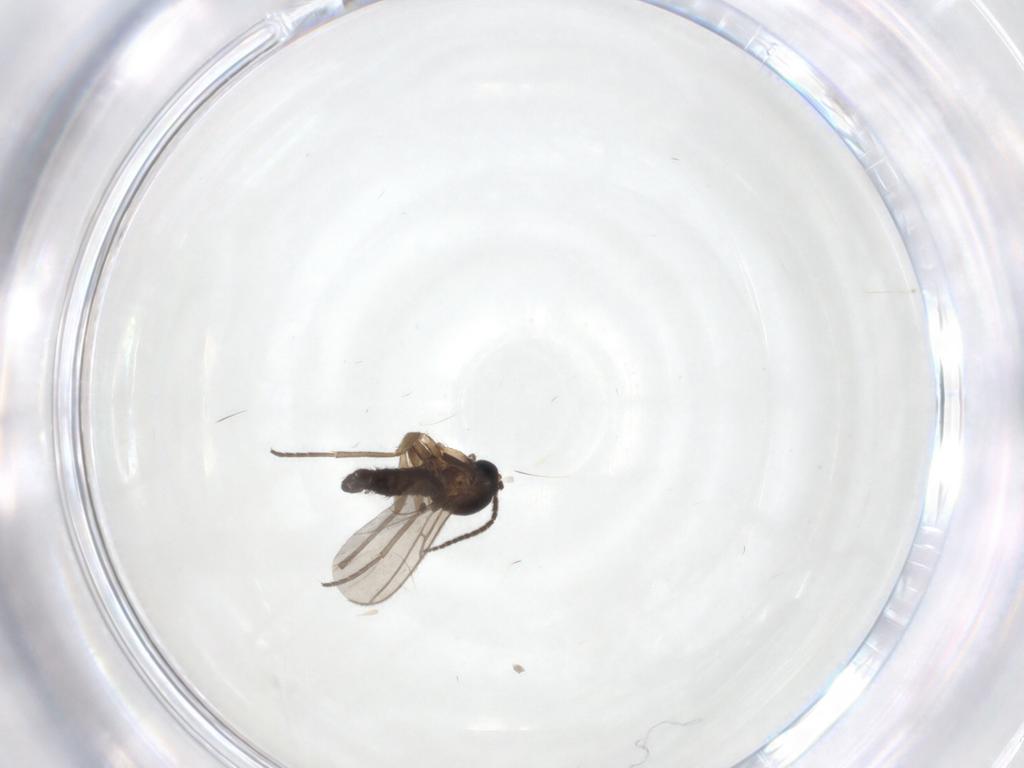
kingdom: Animalia
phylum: Arthropoda
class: Insecta
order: Diptera
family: Sciaridae
